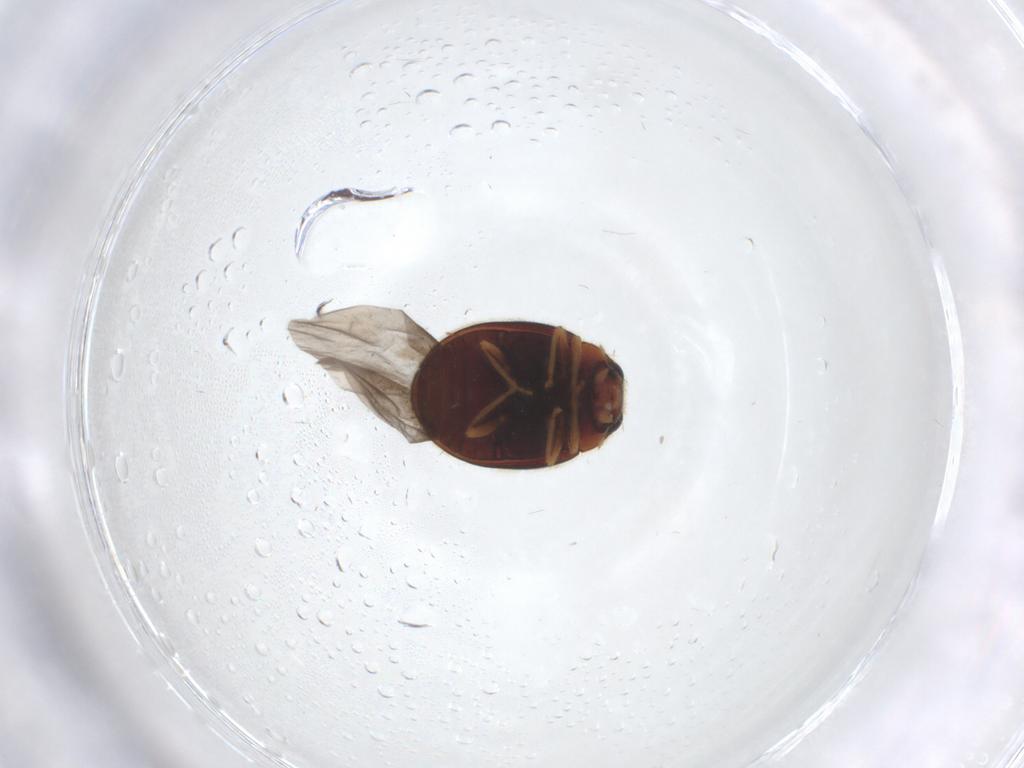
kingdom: Animalia
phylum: Arthropoda
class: Insecta
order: Coleoptera
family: Coccinellidae
